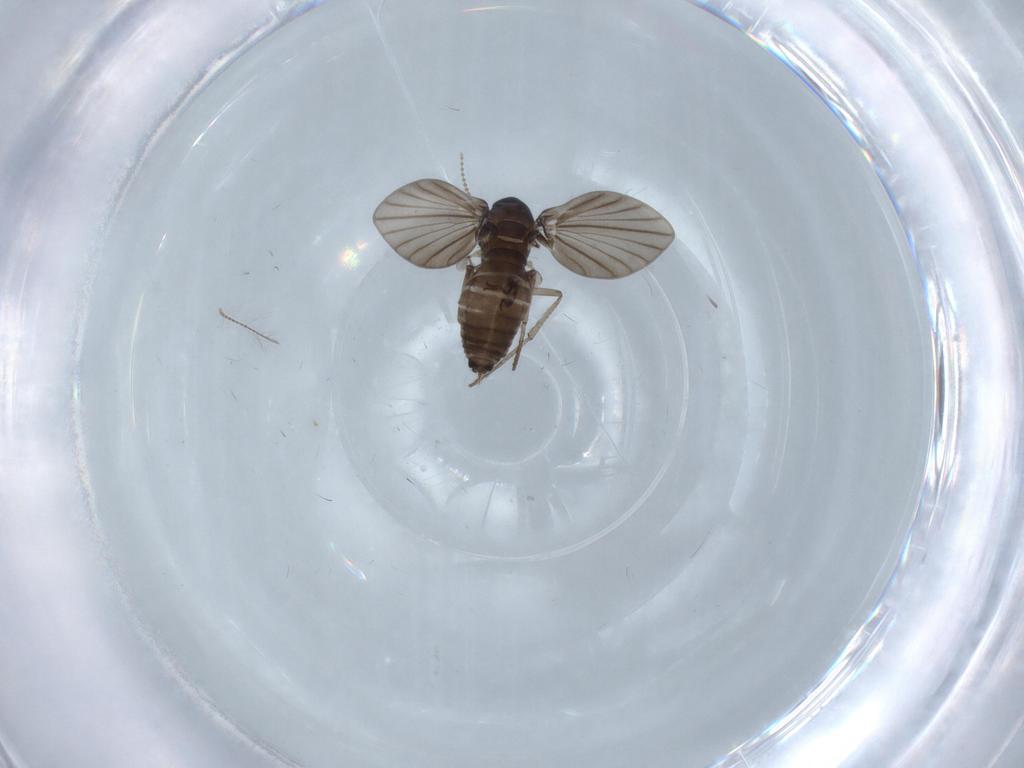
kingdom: Animalia
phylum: Arthropoda
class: Insecta
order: Diptera
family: Psychodidae
